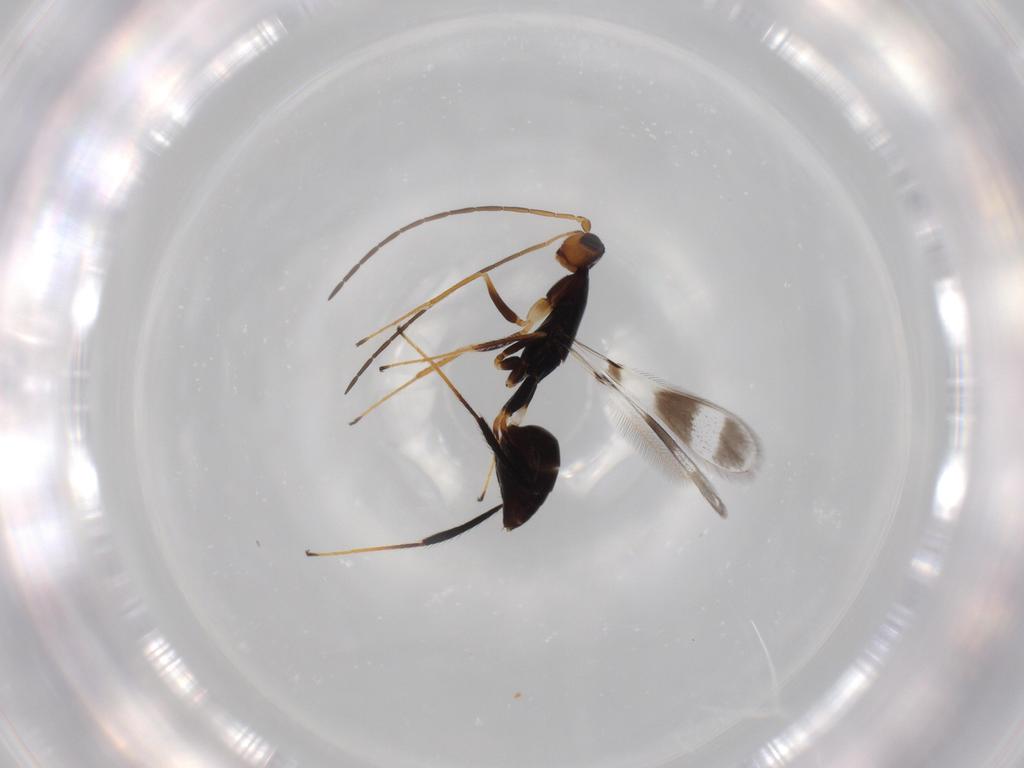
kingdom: Animalia
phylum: Arthropoda
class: Insecta
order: Hymenoptera
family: Mymaridae
